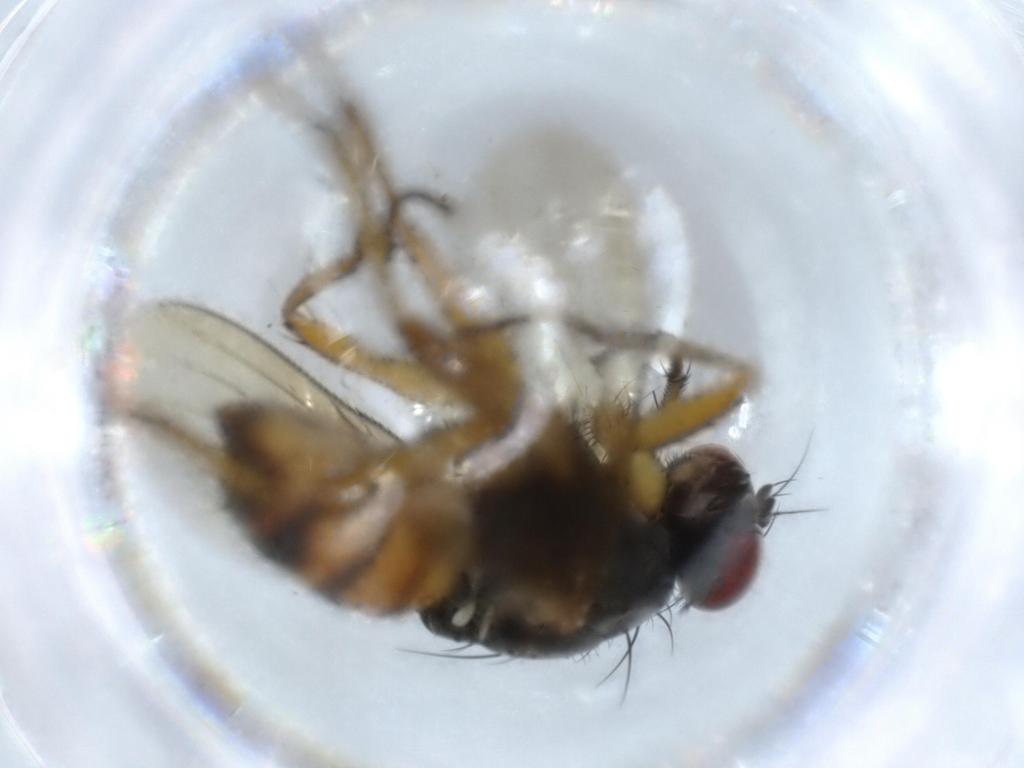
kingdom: Animalia
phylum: Arthropoda
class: Insecta
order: Diptera
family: Muscidae
